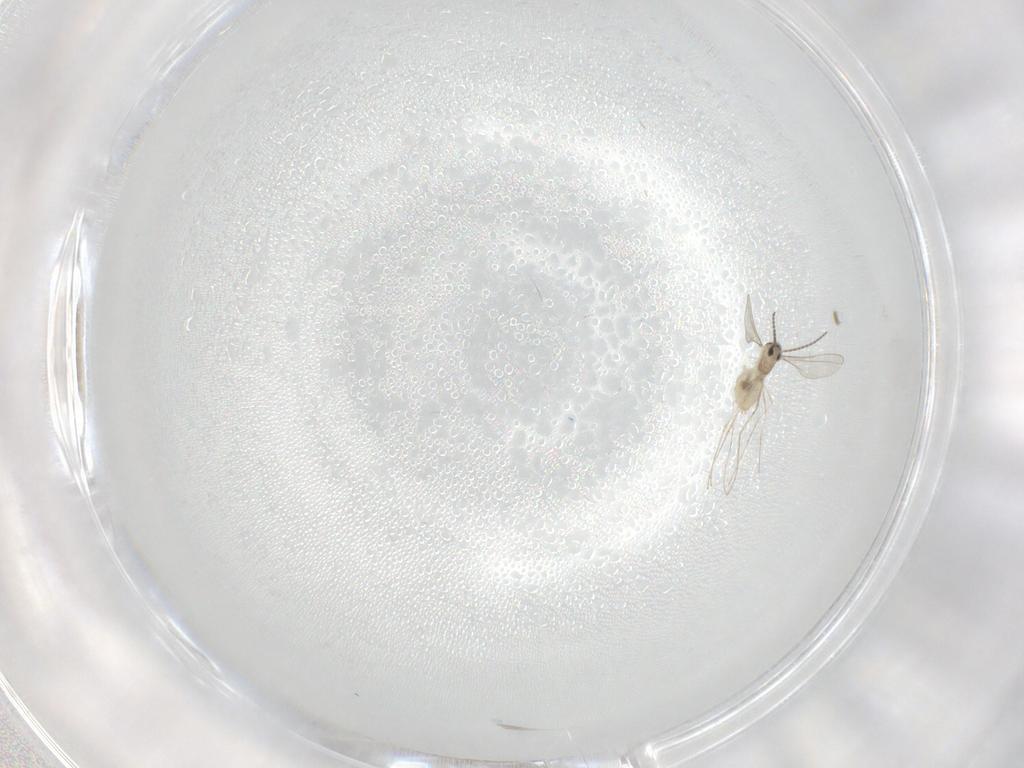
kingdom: Animalia
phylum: Arthropoda
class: Insecta
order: Diptera
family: Sphaeroceridae
